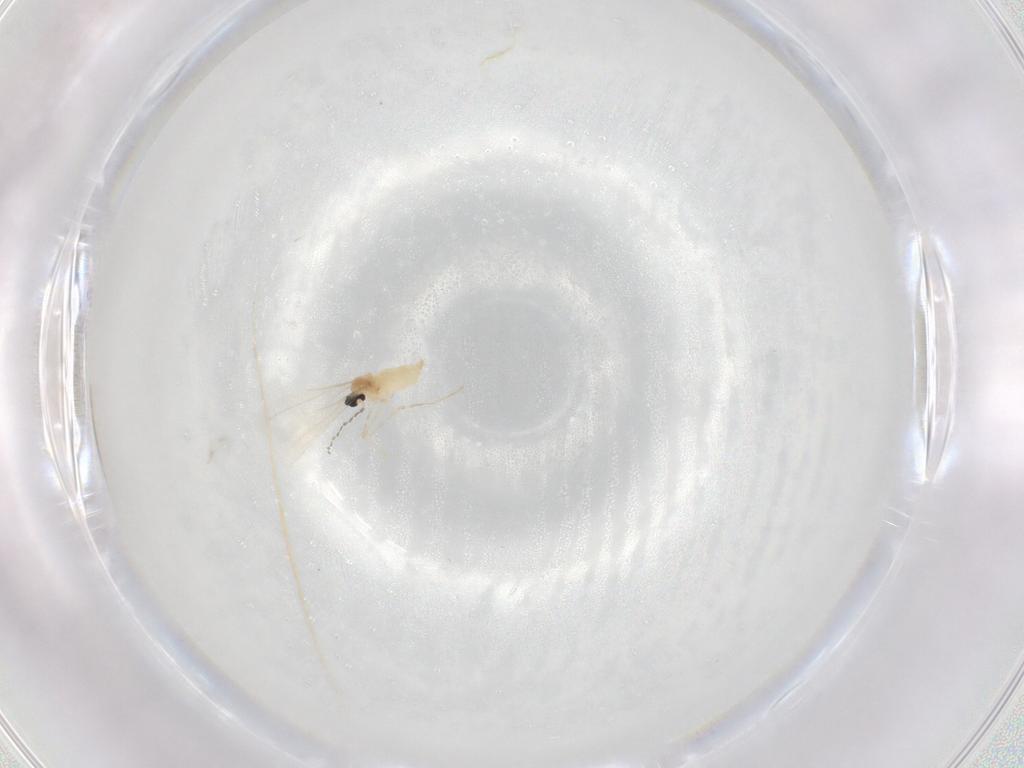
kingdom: Animalia
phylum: Arthropoda
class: Insecta
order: Diptera
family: Cecidomyiidae
